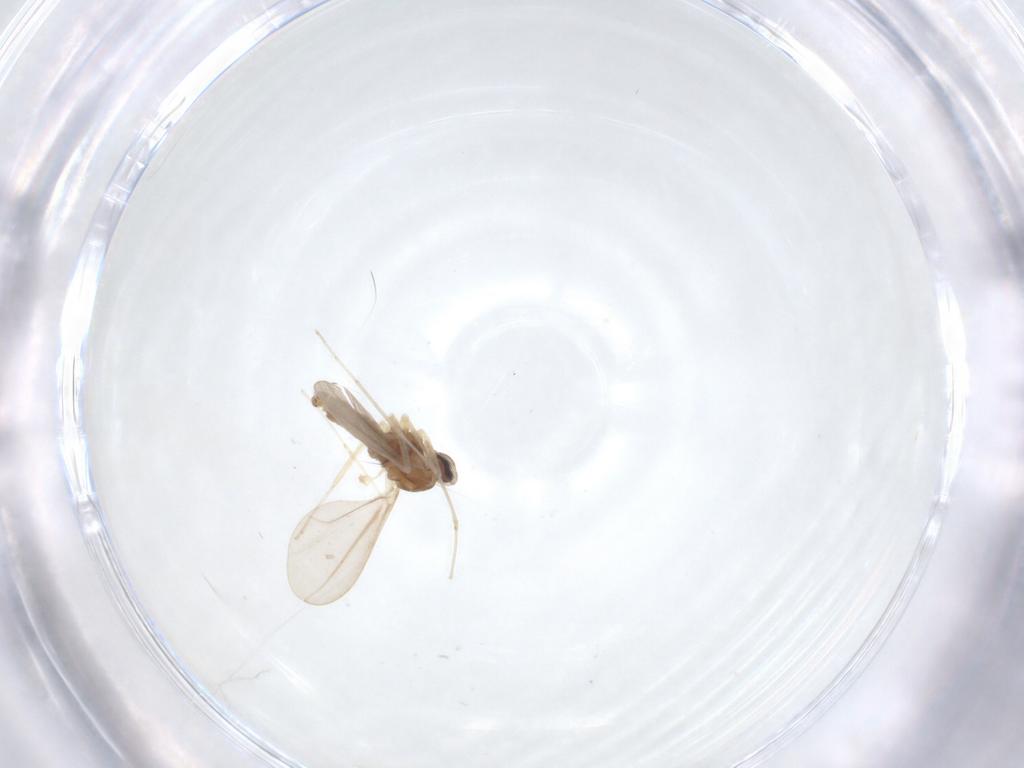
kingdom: Animalia
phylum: Arthropoda
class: Insecta
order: Diptera
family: Cecidomyiidae
